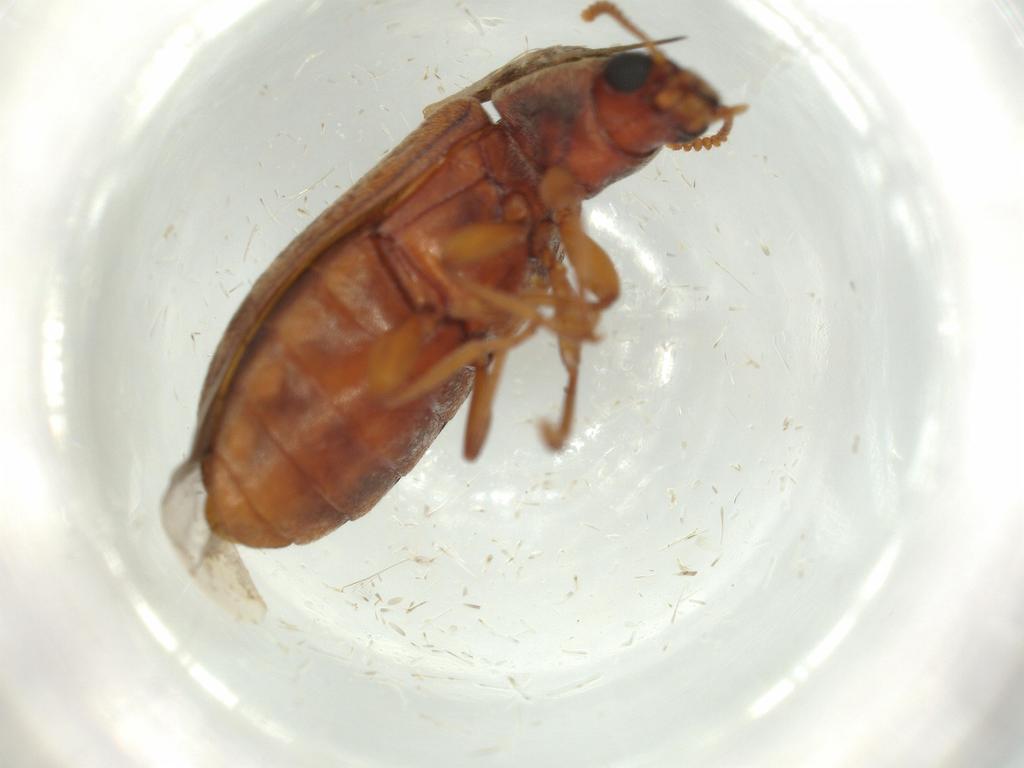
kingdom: Animalia
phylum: Arthropoda
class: Insecta
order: Coleoptera
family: Mycteridae
